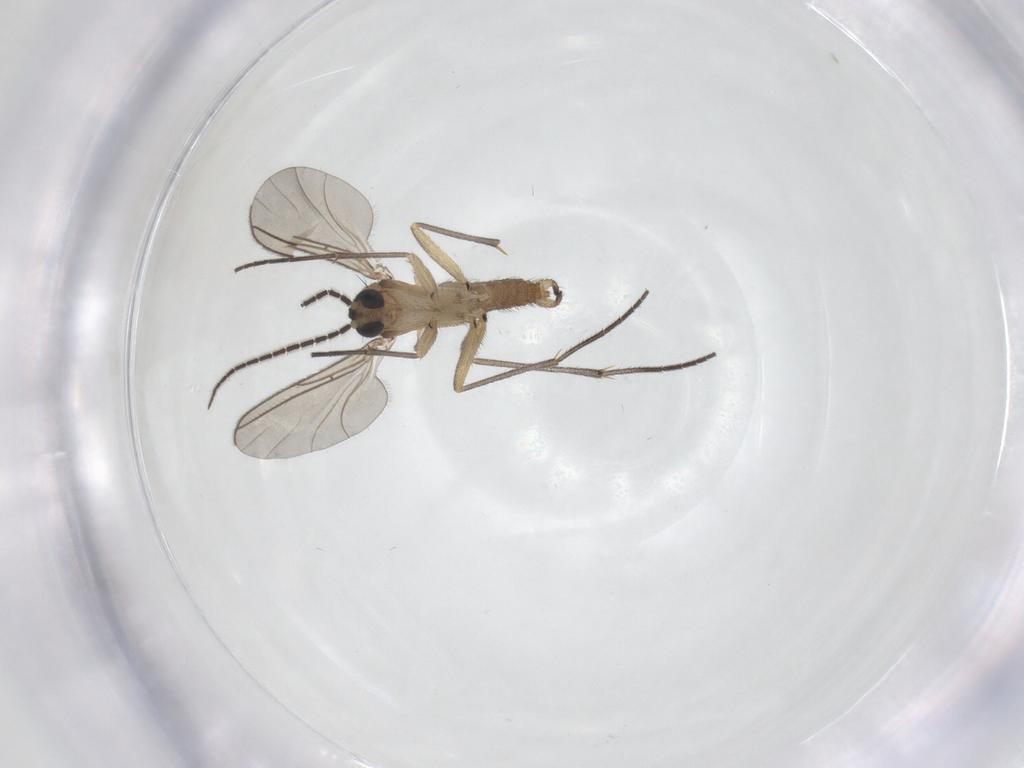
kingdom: Animalia
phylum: Arthropoda
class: Insecta
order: Diptera
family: Sciaridae
